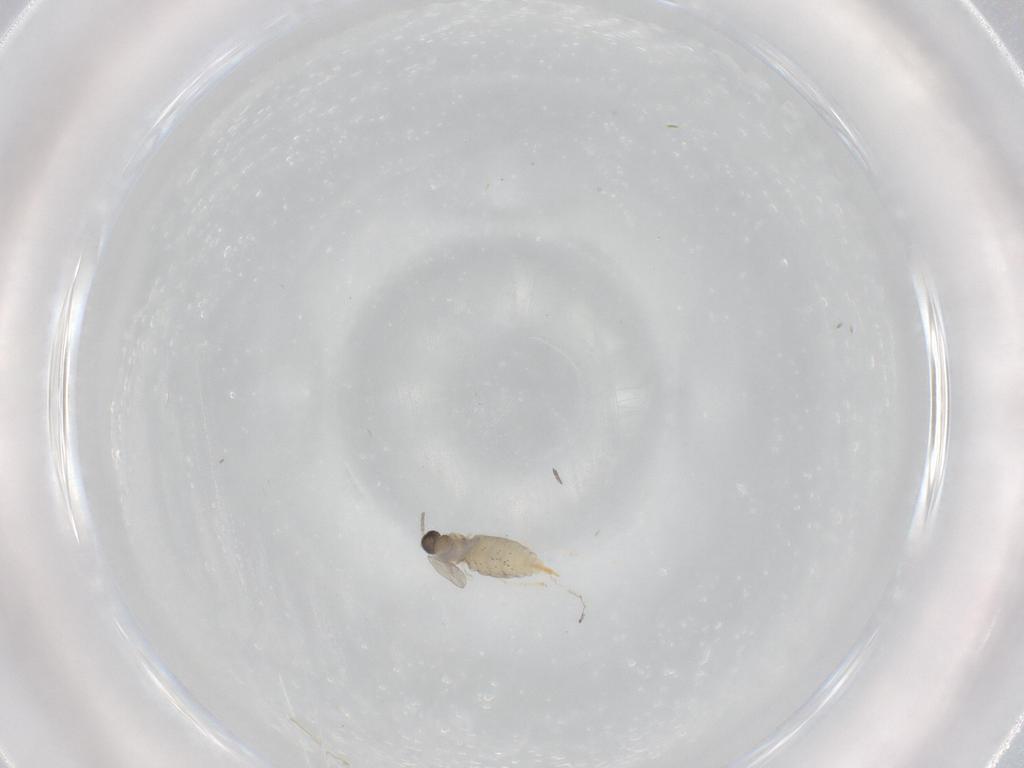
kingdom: Animalia
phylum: Arthropoda
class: Insecta
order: Diptera
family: Cecidomyiidae
